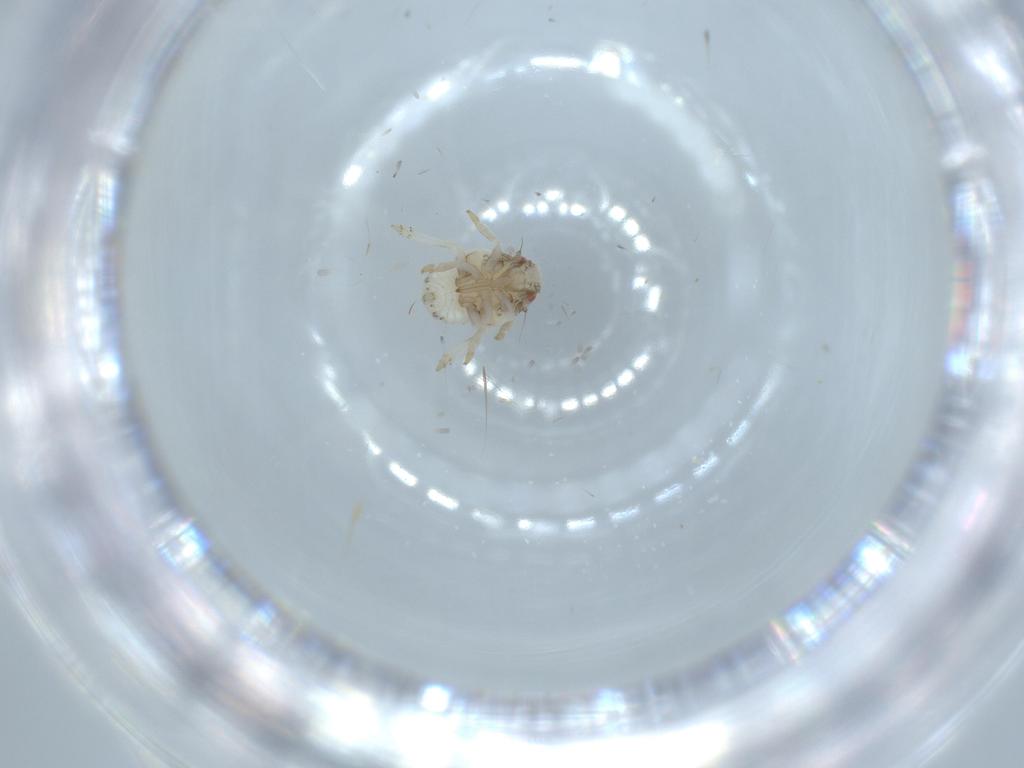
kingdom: Animalia
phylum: Arthropoda
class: Insecta
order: Hemiptera
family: Acanaloniidae
